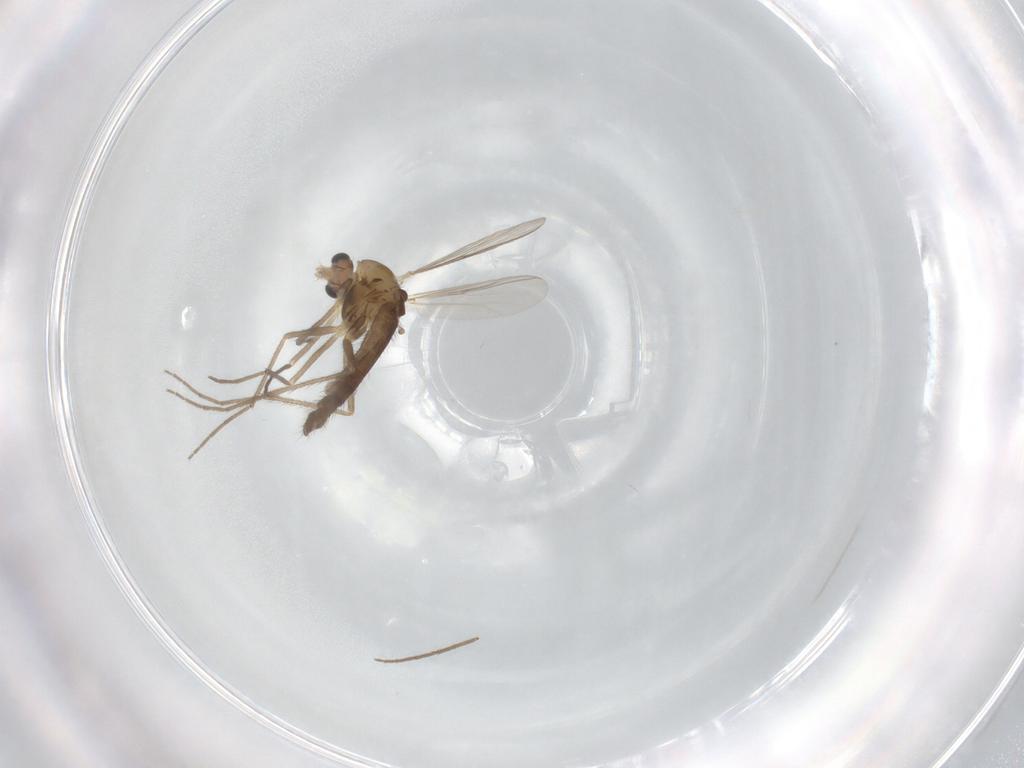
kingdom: Animalia
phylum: Arthropoda
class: Insecta
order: Diptera
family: Chironomidae
